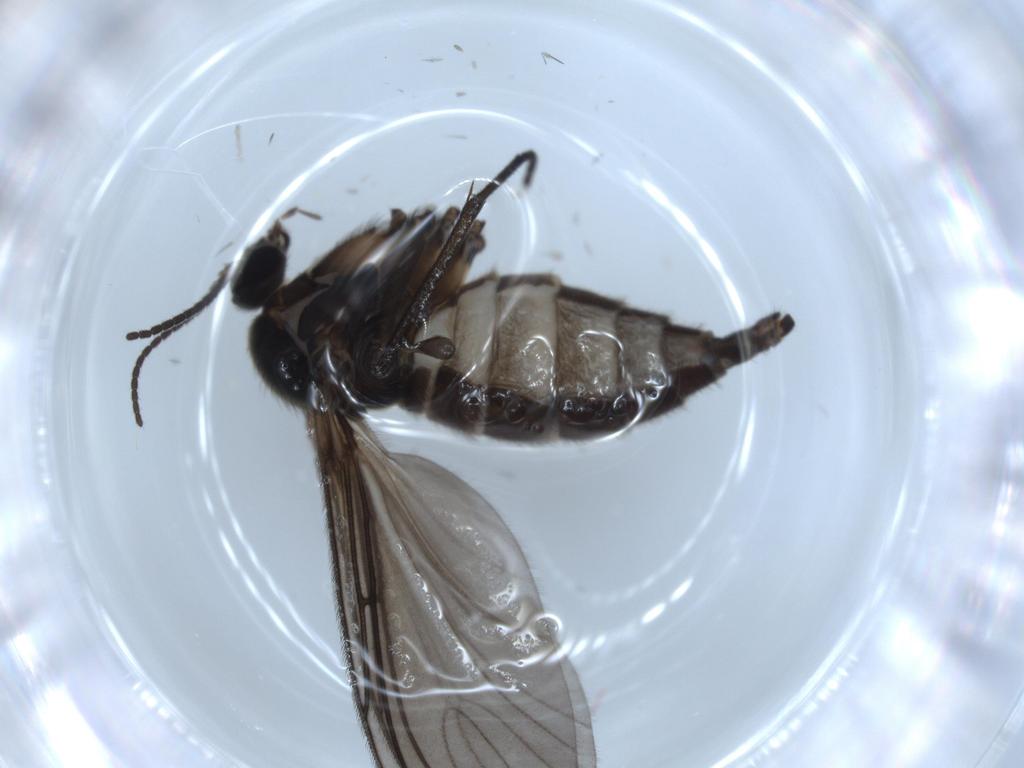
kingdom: Animalia
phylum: Arthropoda
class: Insecta
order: Diptera
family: Sciaridae
